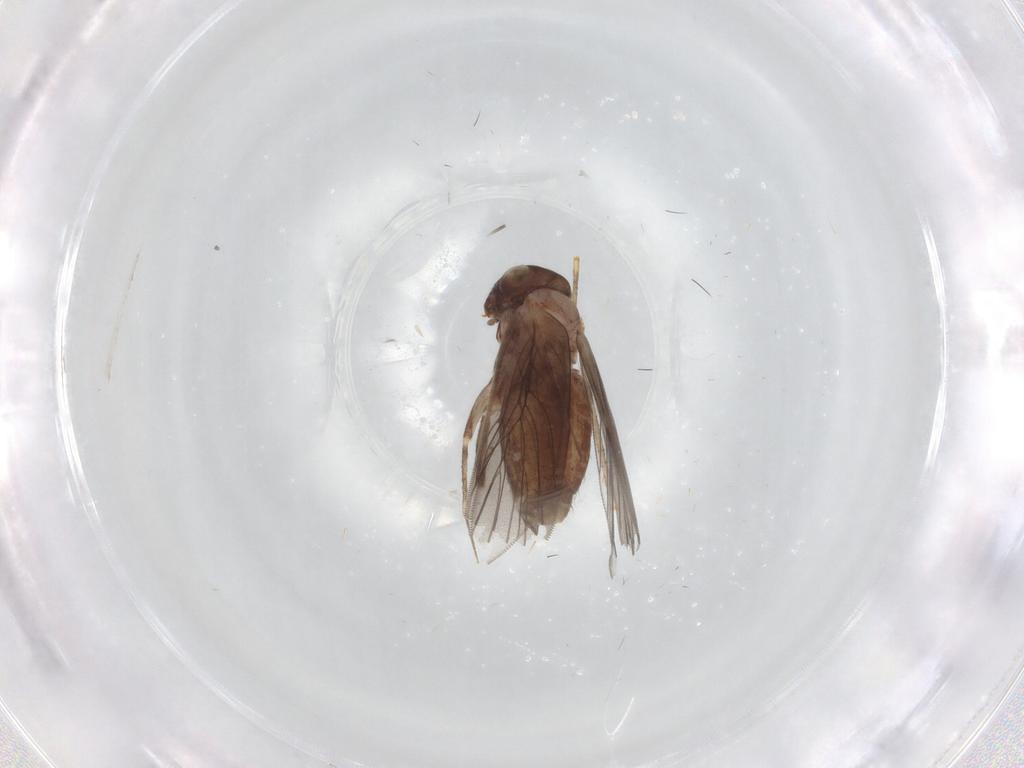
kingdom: Animalia
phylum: Arthropoda
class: Insecta
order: Psocodea
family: Lepidopsocidae
